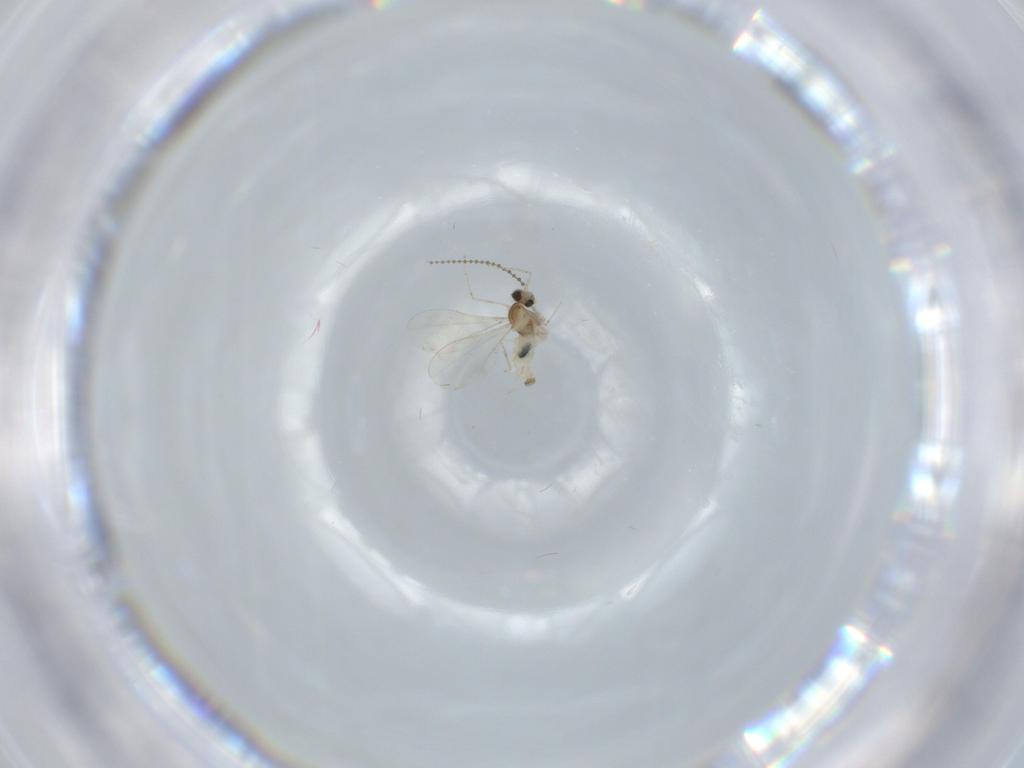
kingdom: Animalia
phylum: Arthropoda
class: Insecta
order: Diptera
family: Cecidomyiidae
